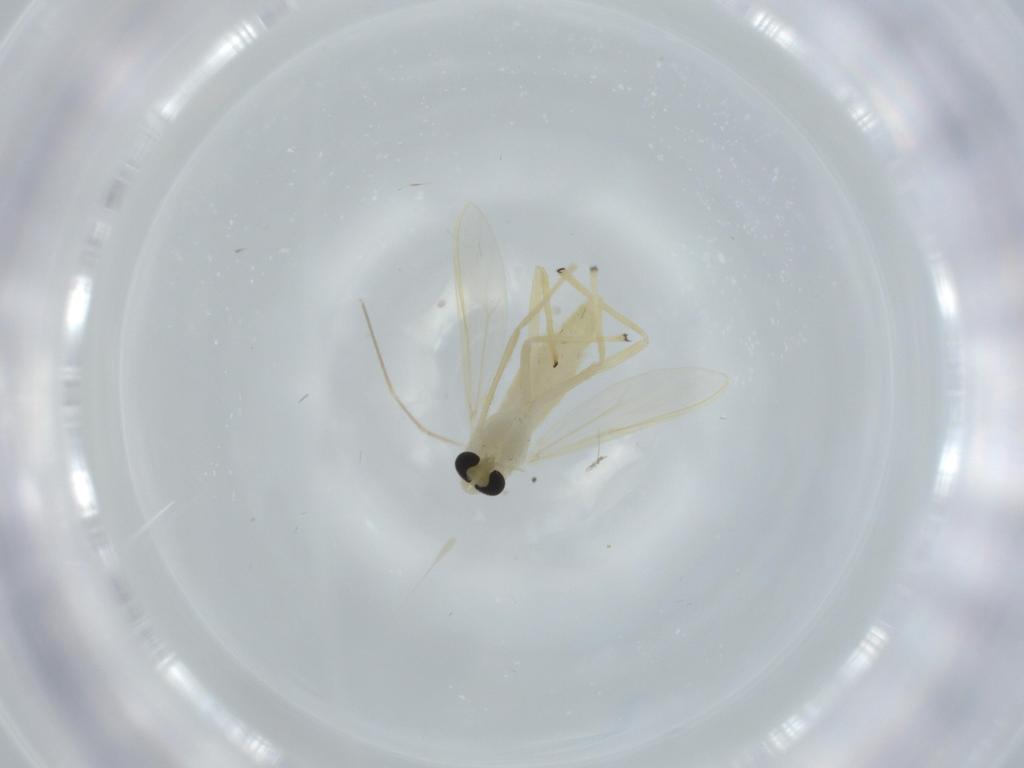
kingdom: Animalia
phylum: Arthropoda
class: Insecta
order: Diptera
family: Chironomidae
